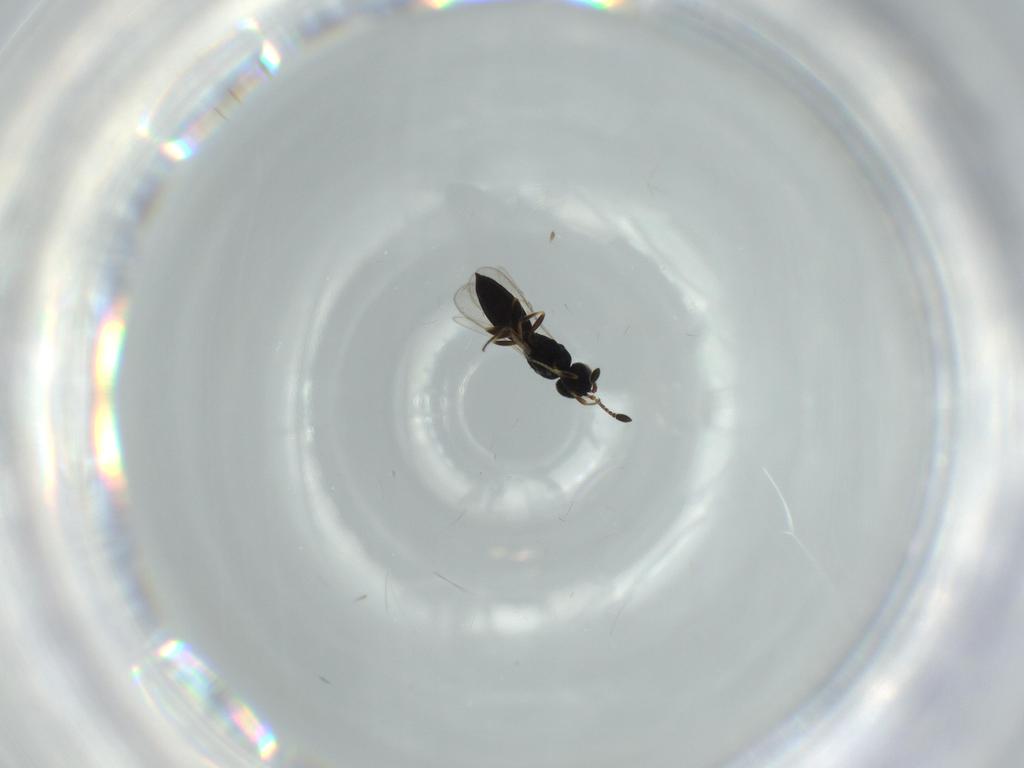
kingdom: Animalia
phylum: Arthropoda
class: Insecta
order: Hymenoptera
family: Scelionidae
